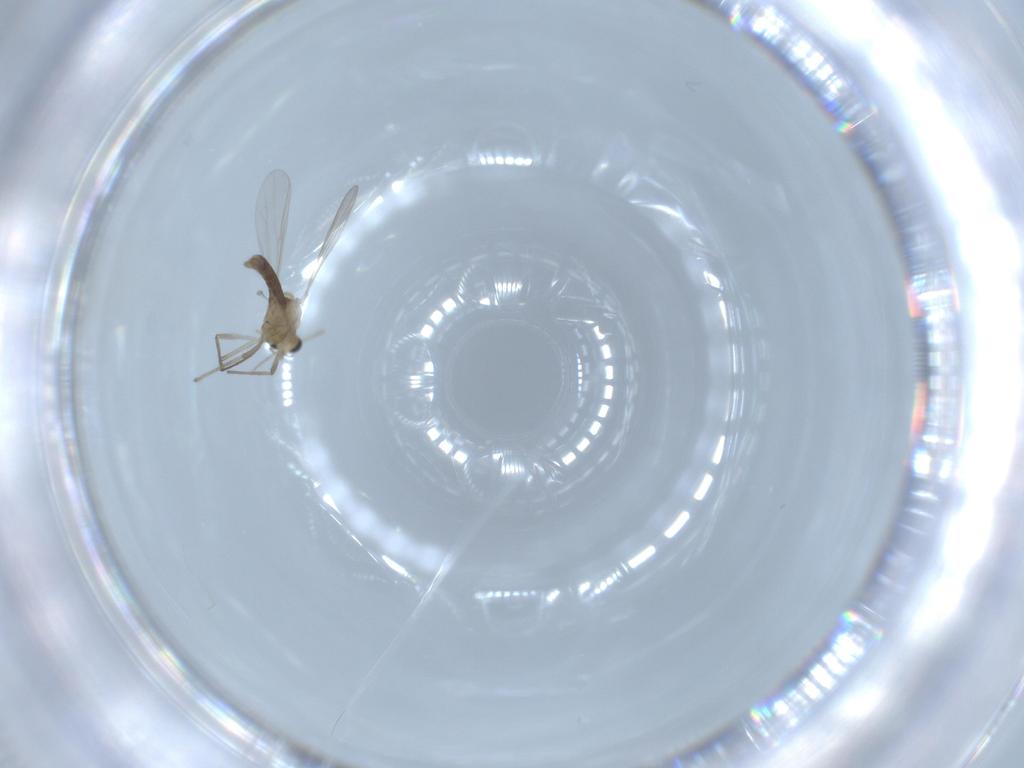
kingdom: Animalia
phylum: Arthropoda
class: Insecta
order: Diptera
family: Chironomidae
